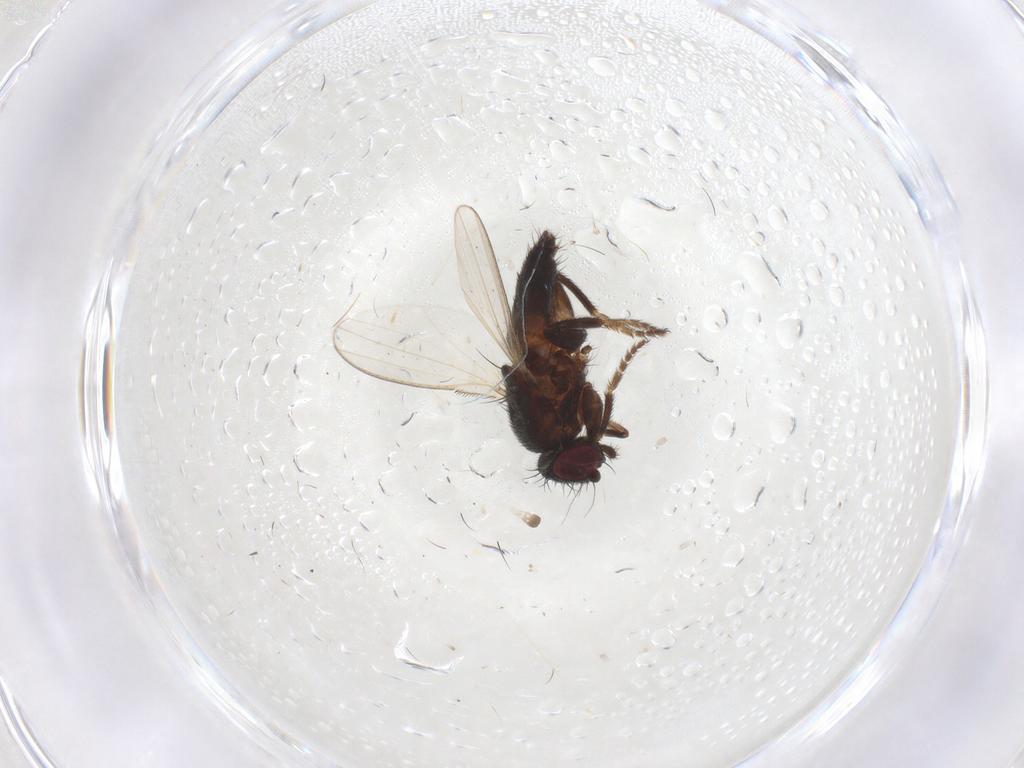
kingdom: Animalia
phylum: Arthropoda
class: Insecta
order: Diptera
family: Milichiidae
